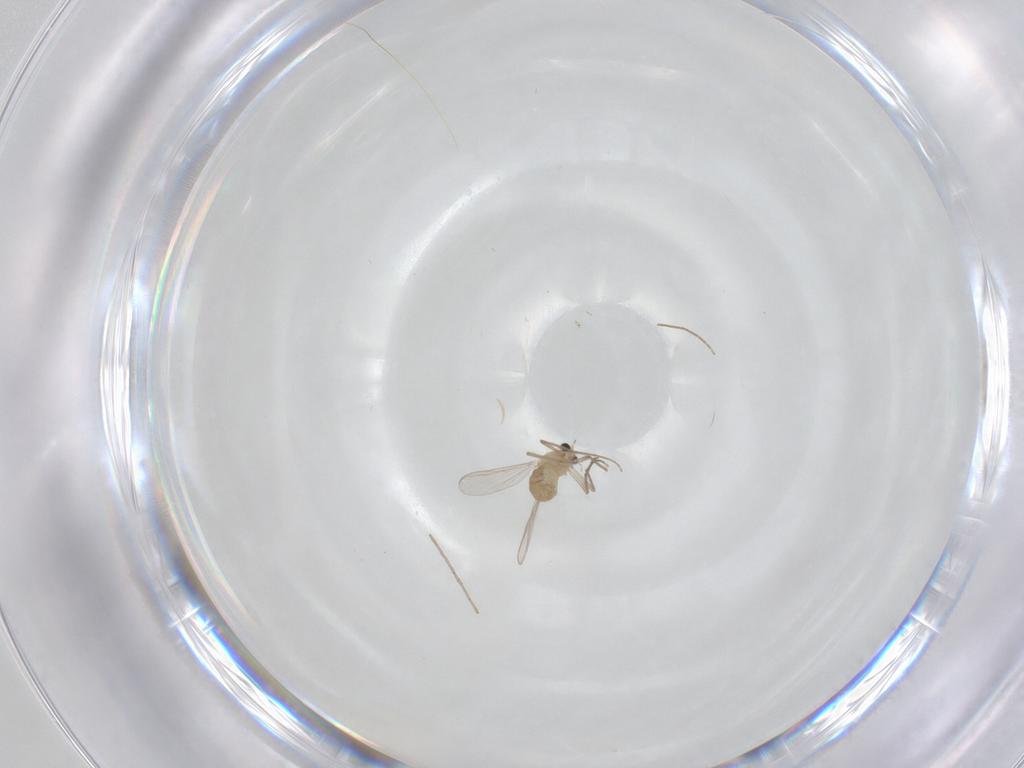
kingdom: Animalia
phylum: Arthropoda
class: Insecta
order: Diptera
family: Chironomidae
